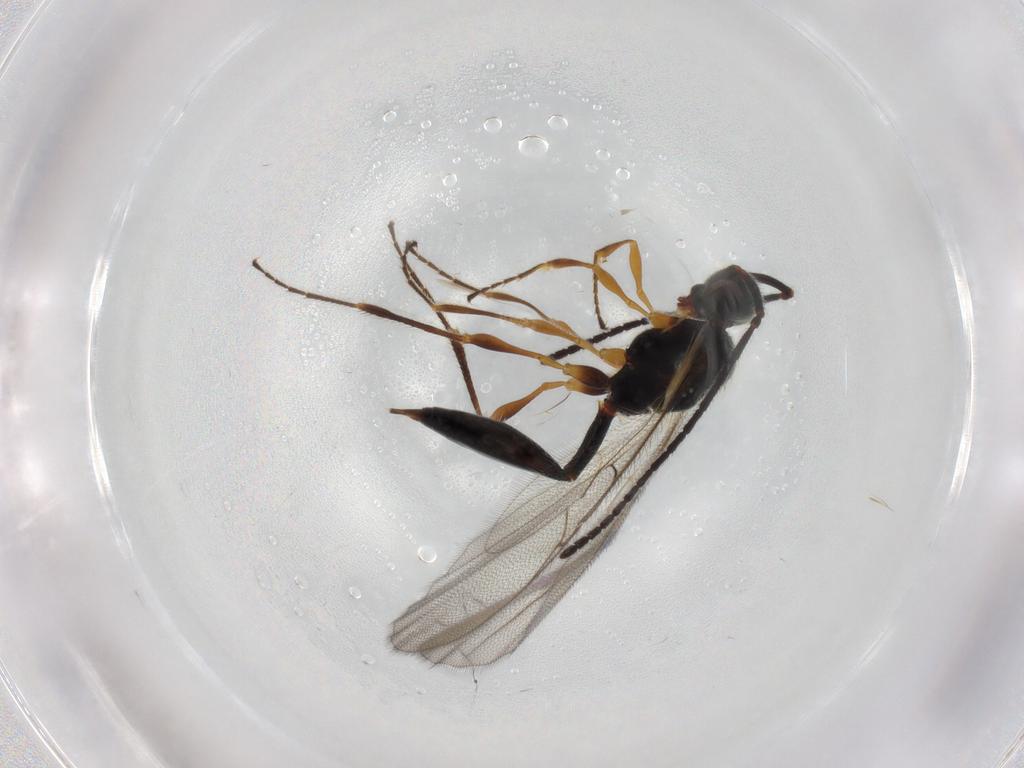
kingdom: Animalia
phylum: Arthropoda
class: Insecta
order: Hymenoptera
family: Diapriidae
